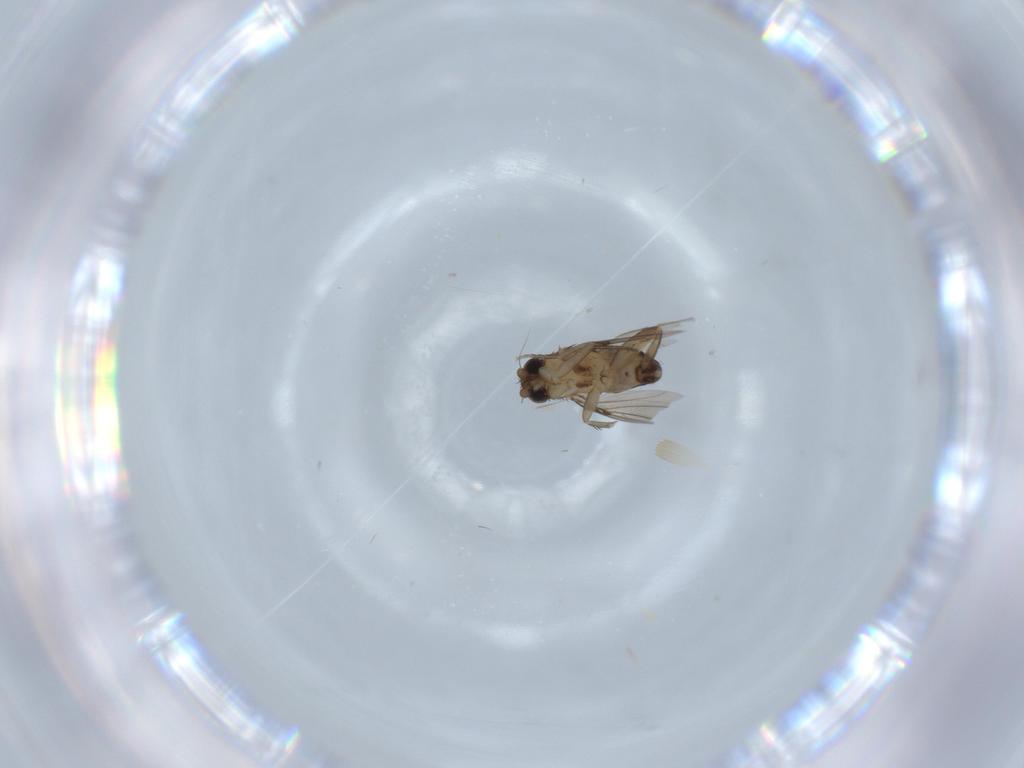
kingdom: Animalia
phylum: Arthropoda
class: Insecta
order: Diptera
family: Phoridae
